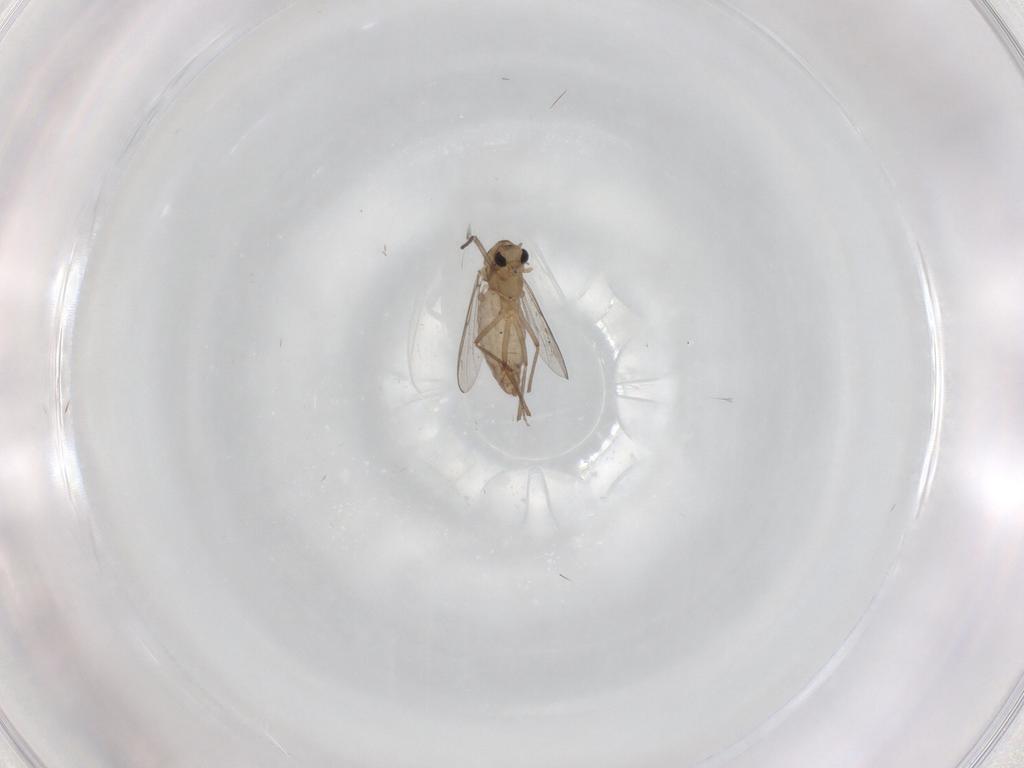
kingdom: Animalia
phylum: Arthropoda
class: Insecta
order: Diptera
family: Chironomidae
